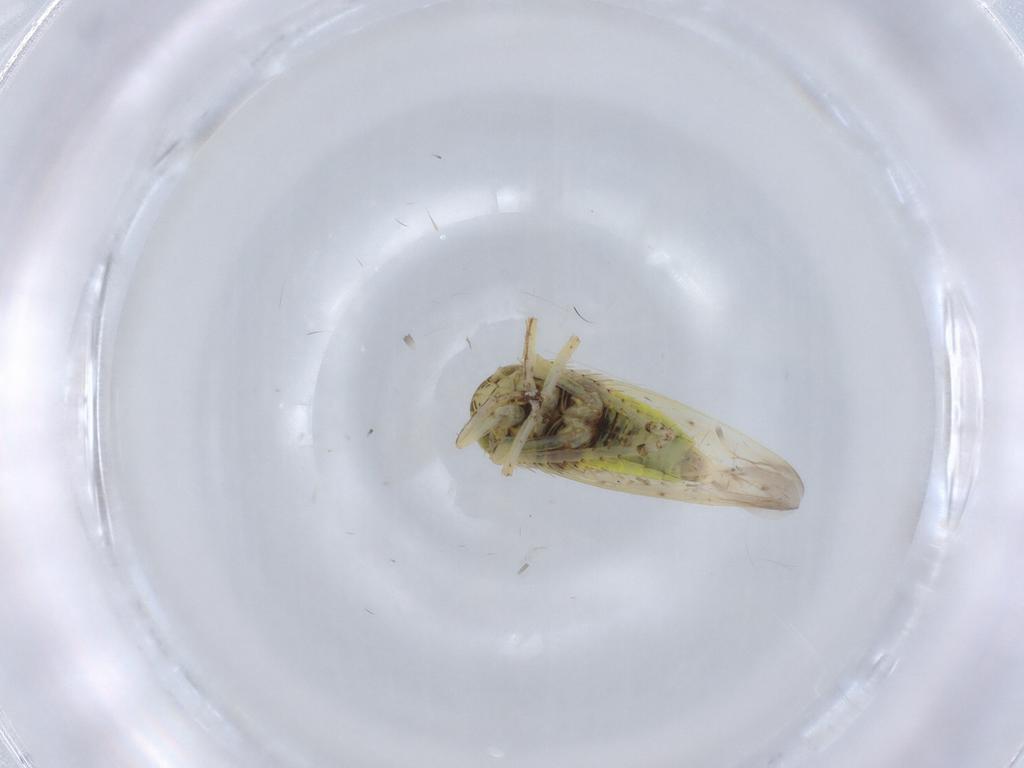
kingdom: Animalia
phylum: Arthropoda
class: Insecta
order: Hemiptera
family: Cicadellidae
